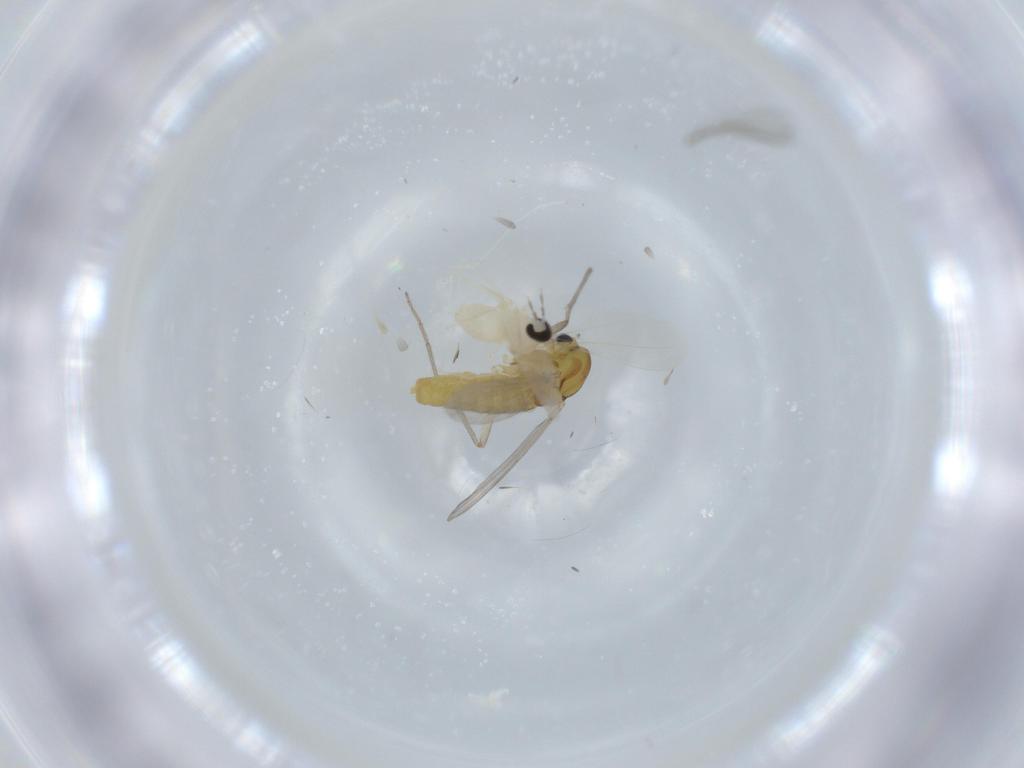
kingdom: Animalia
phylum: Arthropoda
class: Insecta
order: Diptera
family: Chironomidae
